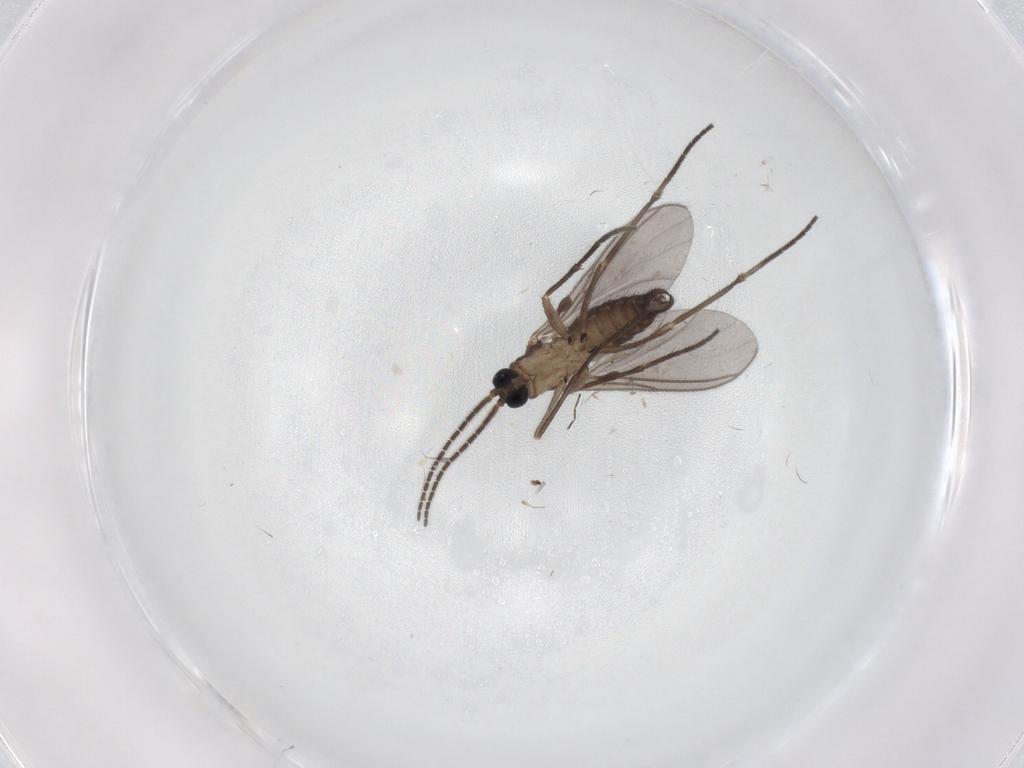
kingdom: Animalia
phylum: Arthropoda
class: Insecta
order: Diptera
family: Sciaridae
